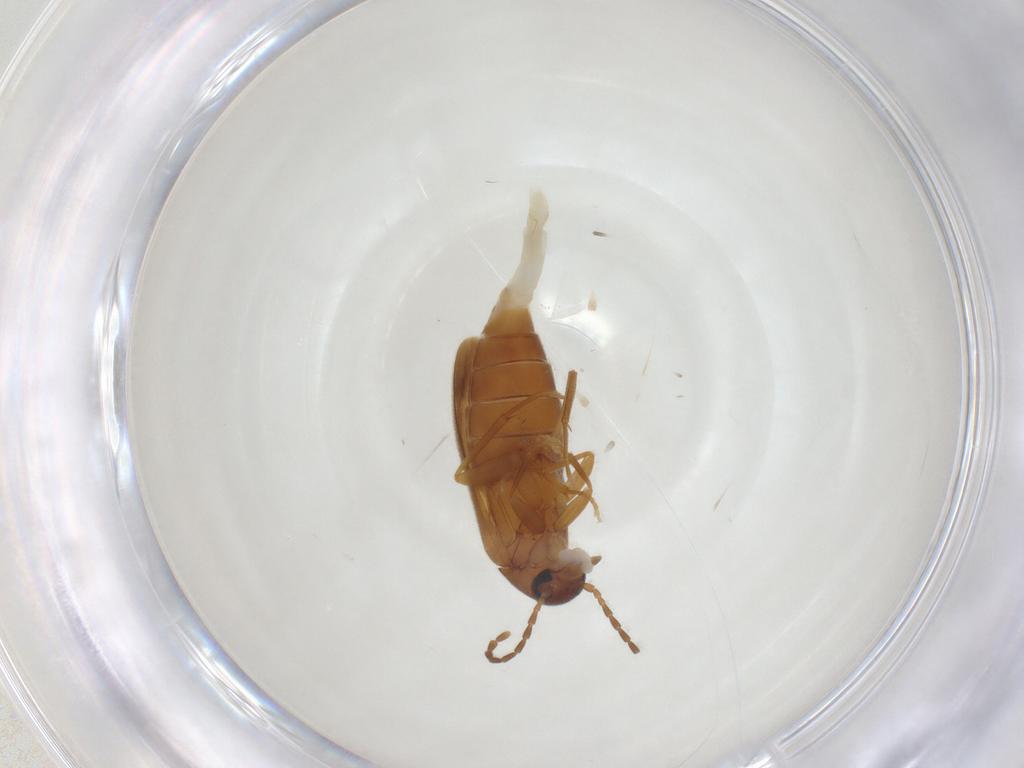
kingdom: Animalia
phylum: Arthropoda
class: Insecta
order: Coleoptera
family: Scraptiidae
